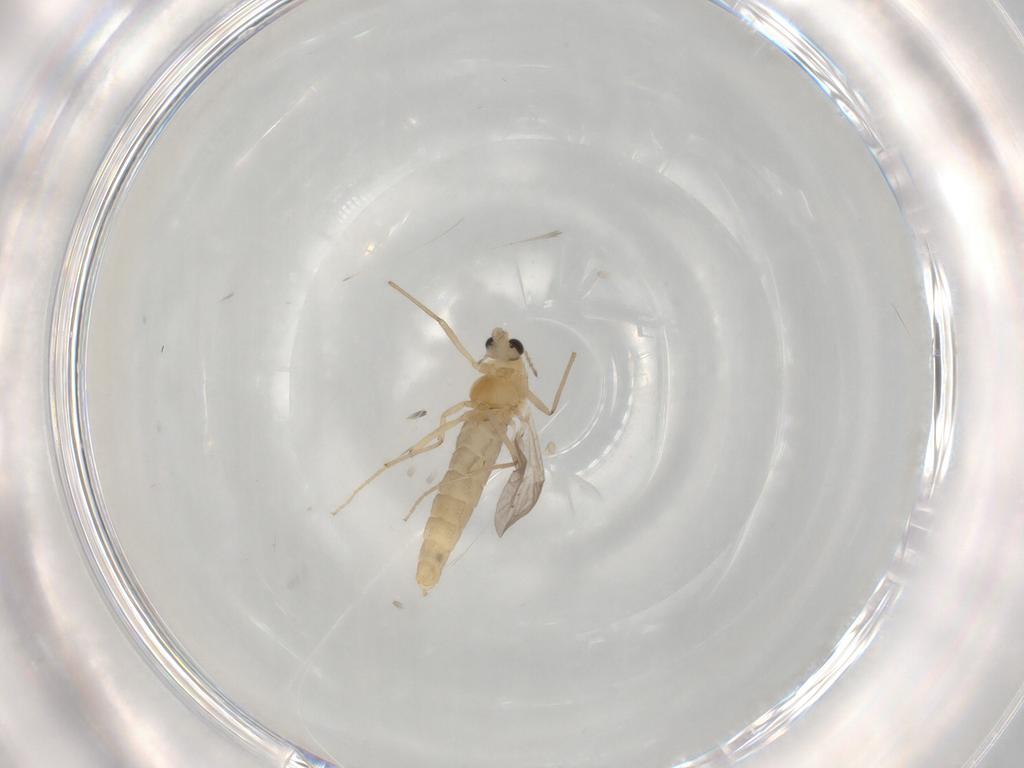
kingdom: Animalia
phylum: Arthropoda
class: Insecta
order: Diptera
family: Chironomidae
